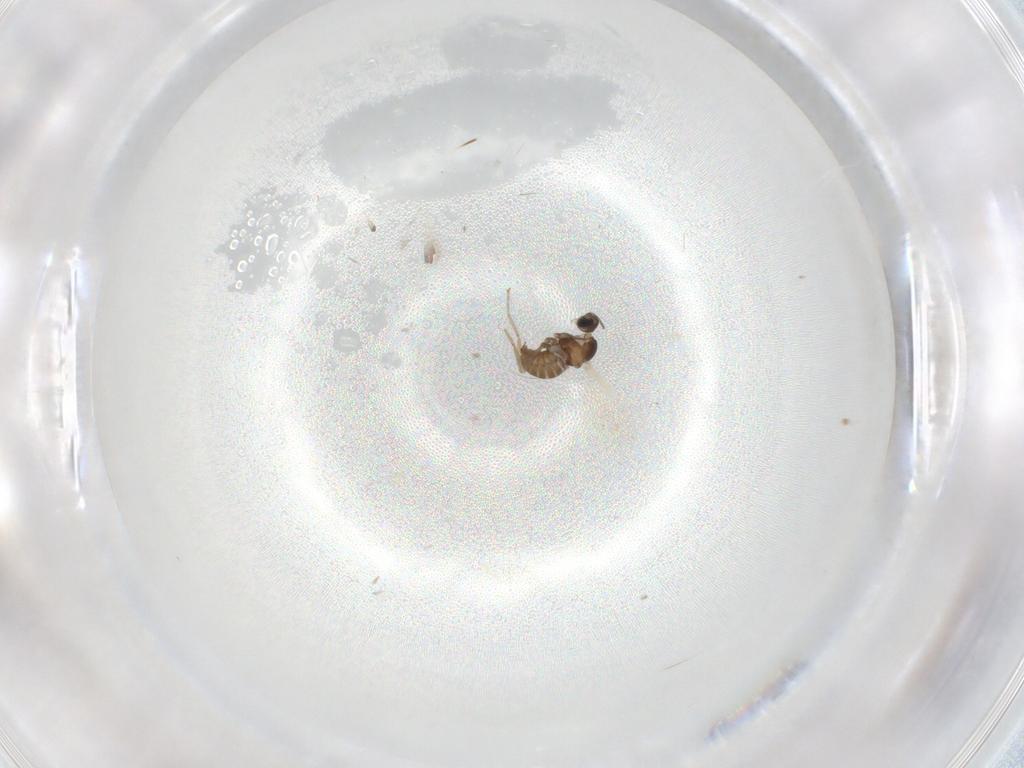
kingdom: Animalia
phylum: Arthropoda
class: Insecta
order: Diptera
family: Cecidomyiidae
